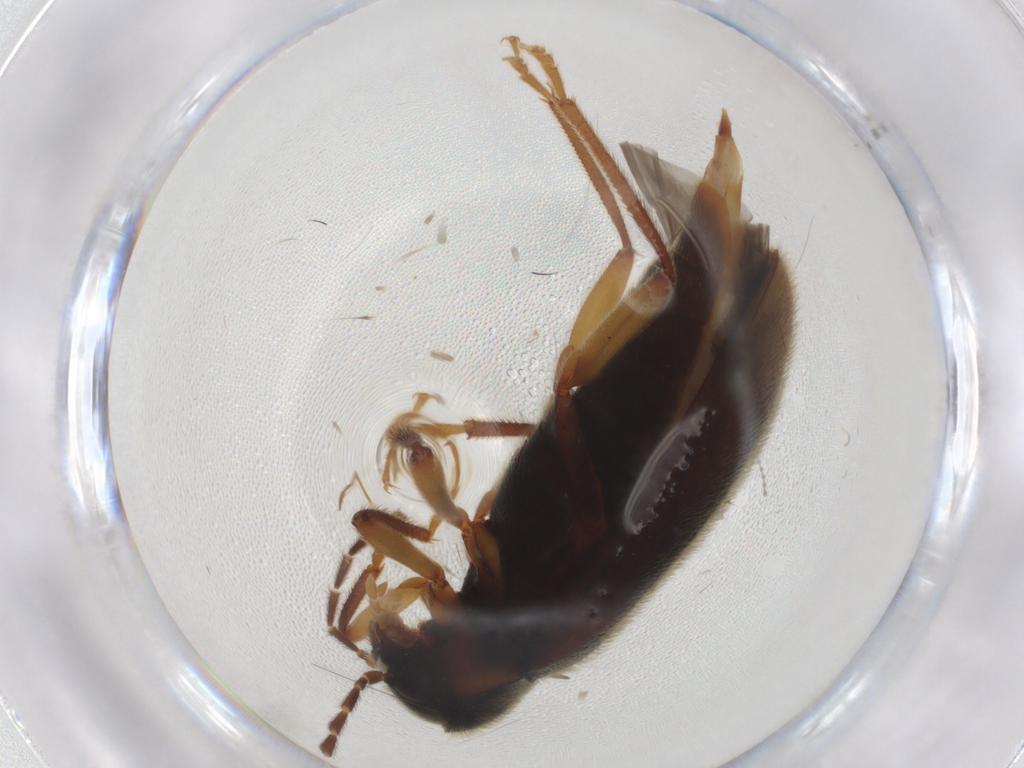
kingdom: Animalia
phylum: Arthropoda
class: Insecta
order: Coleoptera
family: Ptilodactylidae
